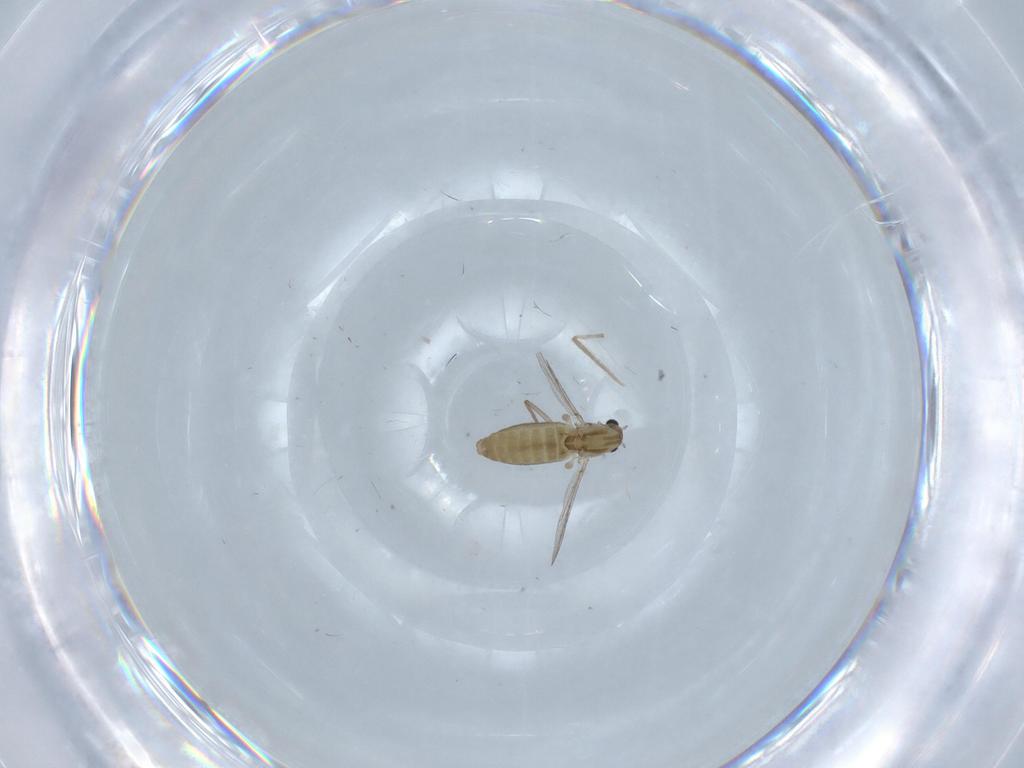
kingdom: Animalia
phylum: Arthropoda
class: Insecta
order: Diptera
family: Chironomidae
